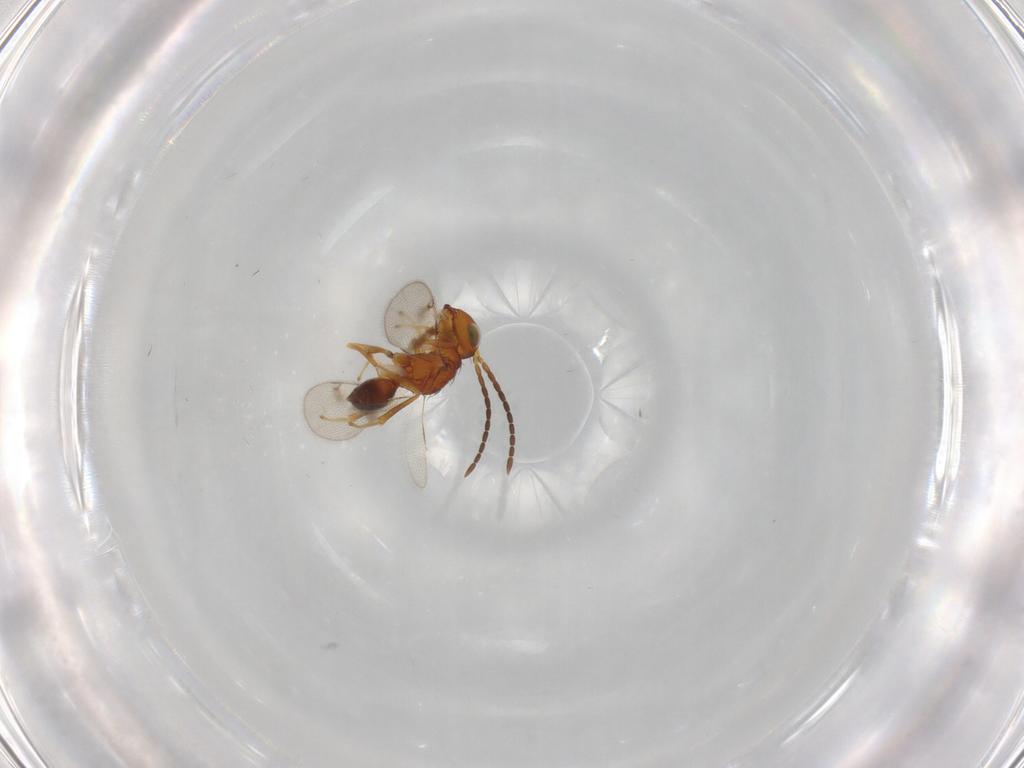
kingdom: Animalia
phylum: Arthropoda
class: Insecta
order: Hymenoptera
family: Diparidae
